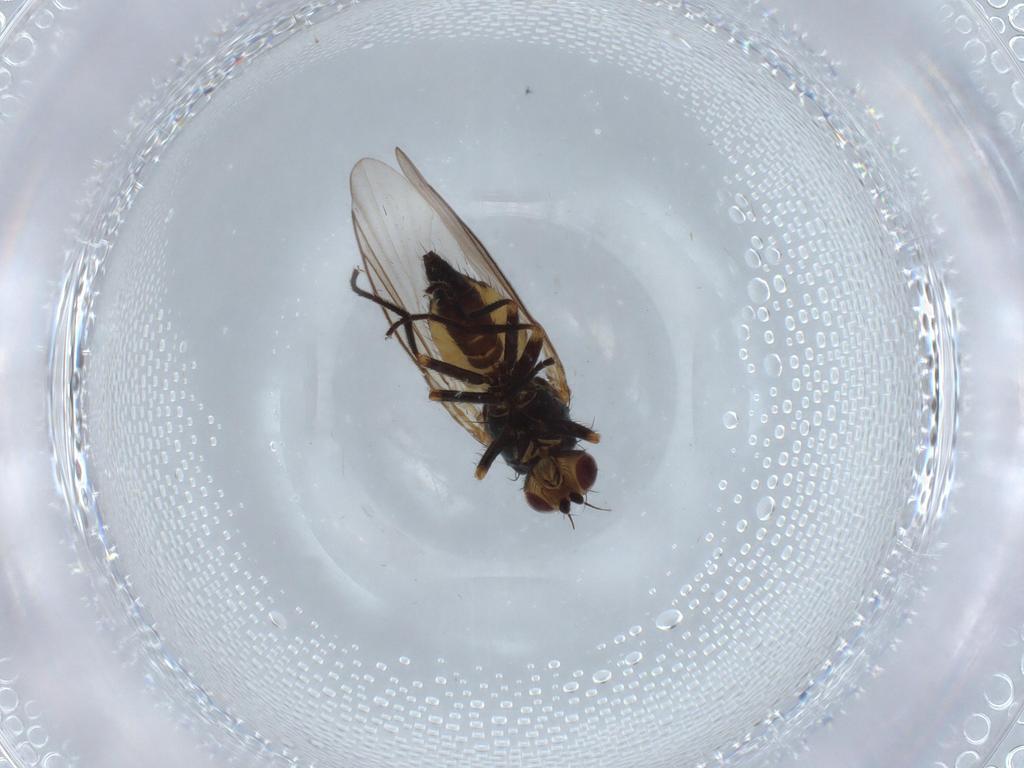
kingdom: Animalia
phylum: Arthropoda
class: Insecta
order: Diptera
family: Agromyzidae
